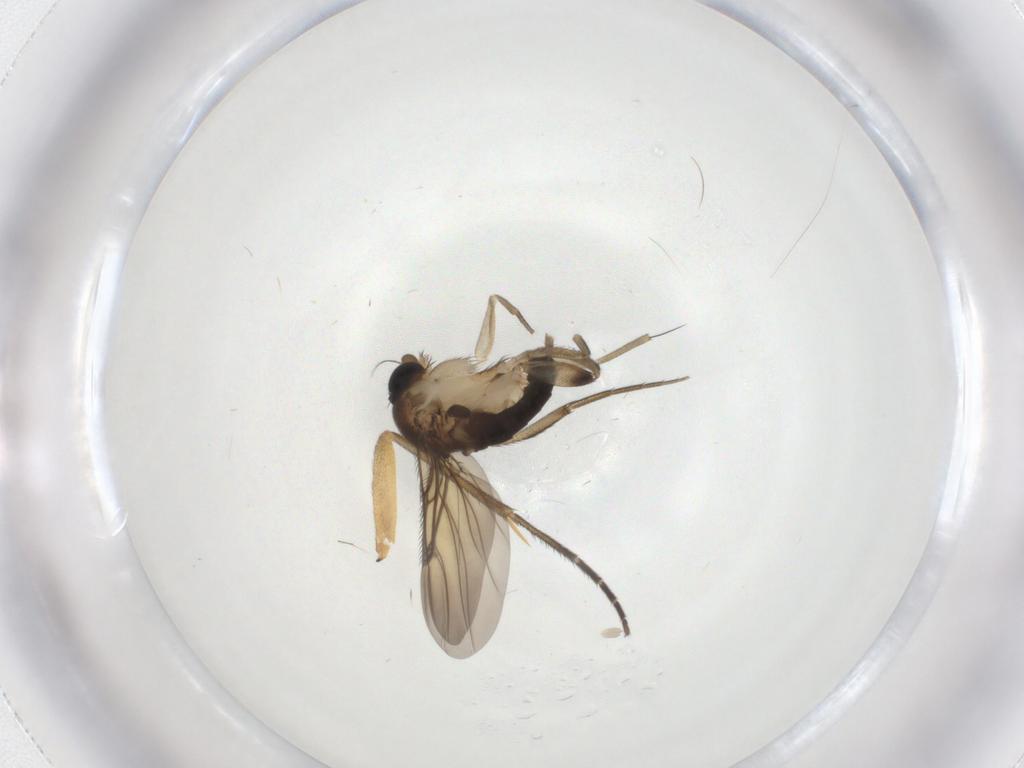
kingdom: Animalia
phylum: Arthropoda
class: Insecta
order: Diptera
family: Mycetophilidae
